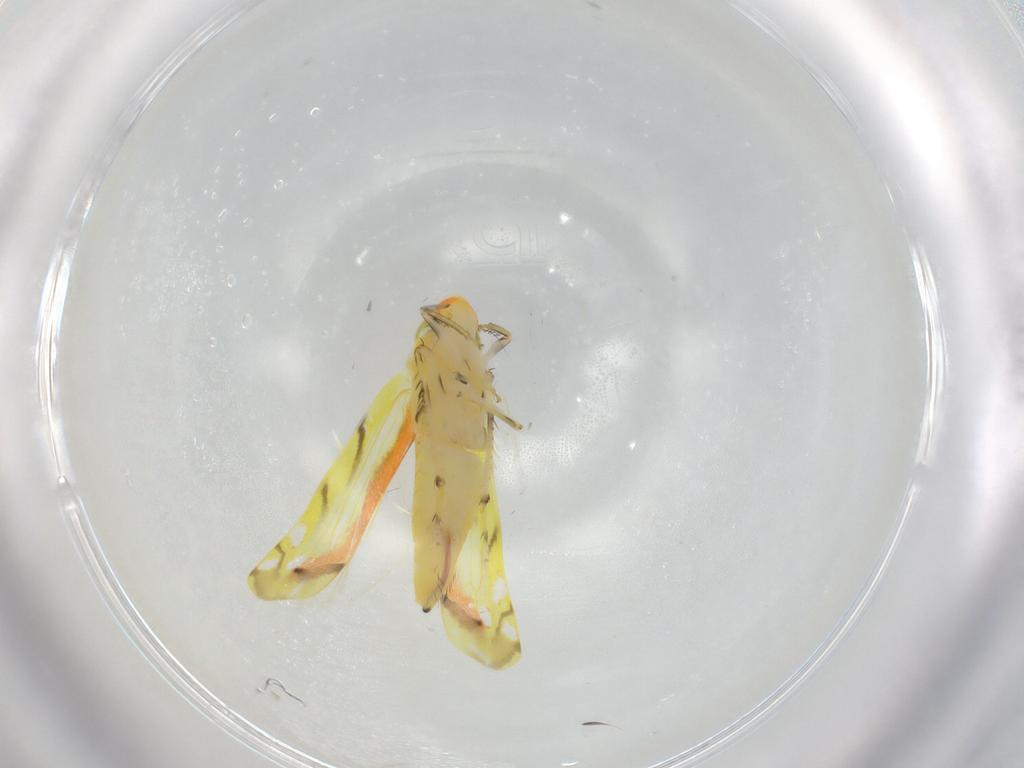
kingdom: Animalia
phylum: Arthropoda
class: Insecta
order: Hemiptera
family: Cicadellidae
